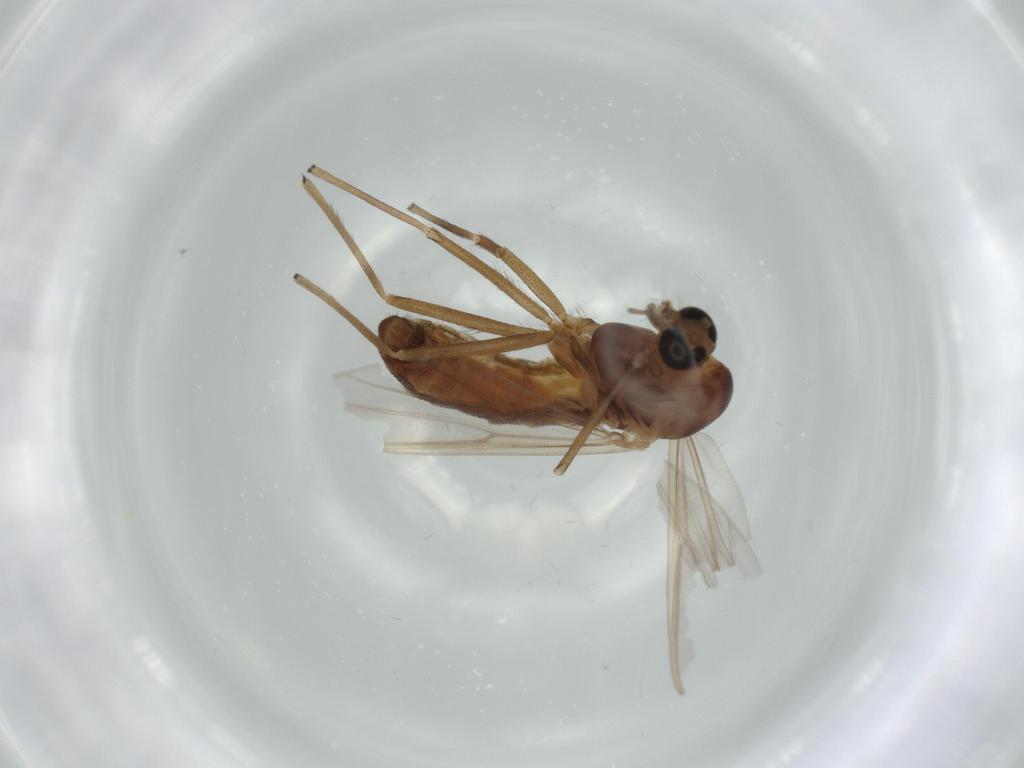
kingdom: Animalia
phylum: Arthropoda
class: Insecta
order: Diptera
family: Chironomidae
